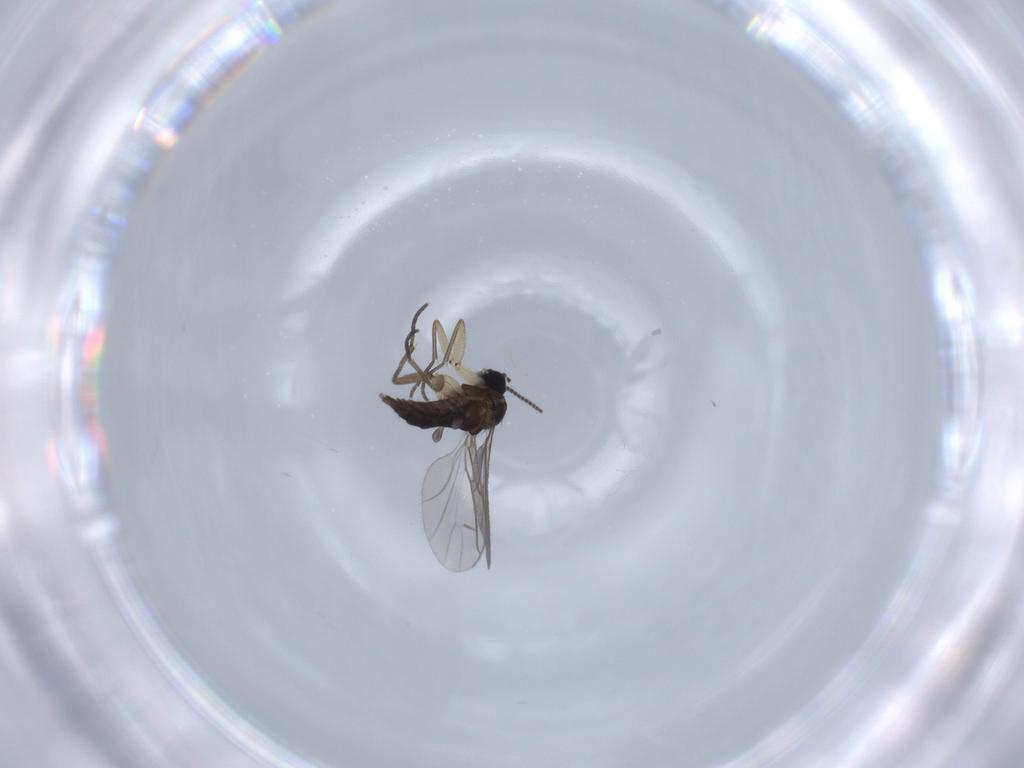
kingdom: Animalia
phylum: Arthropoda
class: Insecta
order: Diptera
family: Sciaridae
